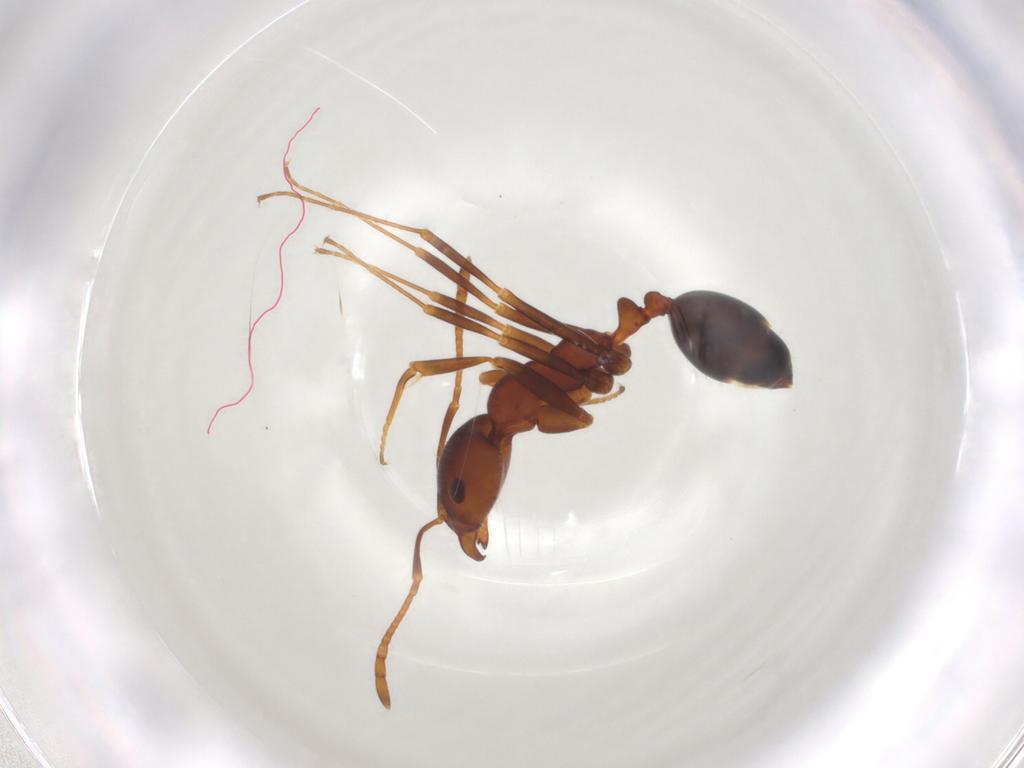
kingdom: Animalia
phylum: Arthropoda
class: Insecta
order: Hymenoptera
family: Formicidae
